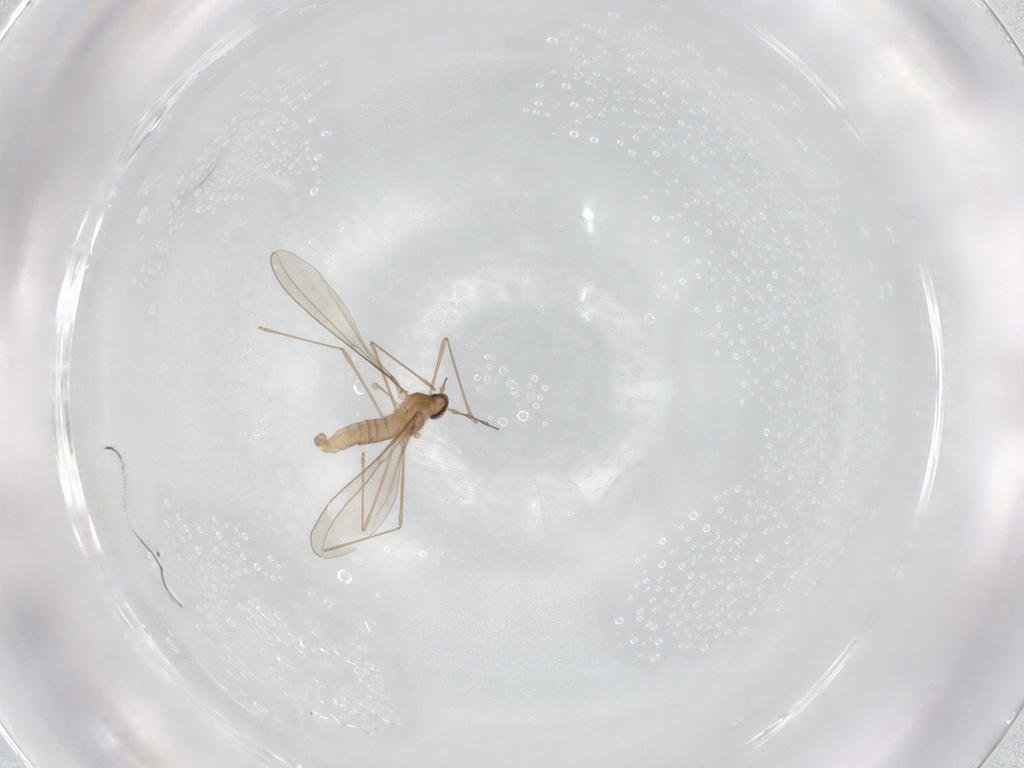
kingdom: Animalia
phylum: Arthropoda
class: Insecta
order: Diptera
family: Cecidomyiidae
